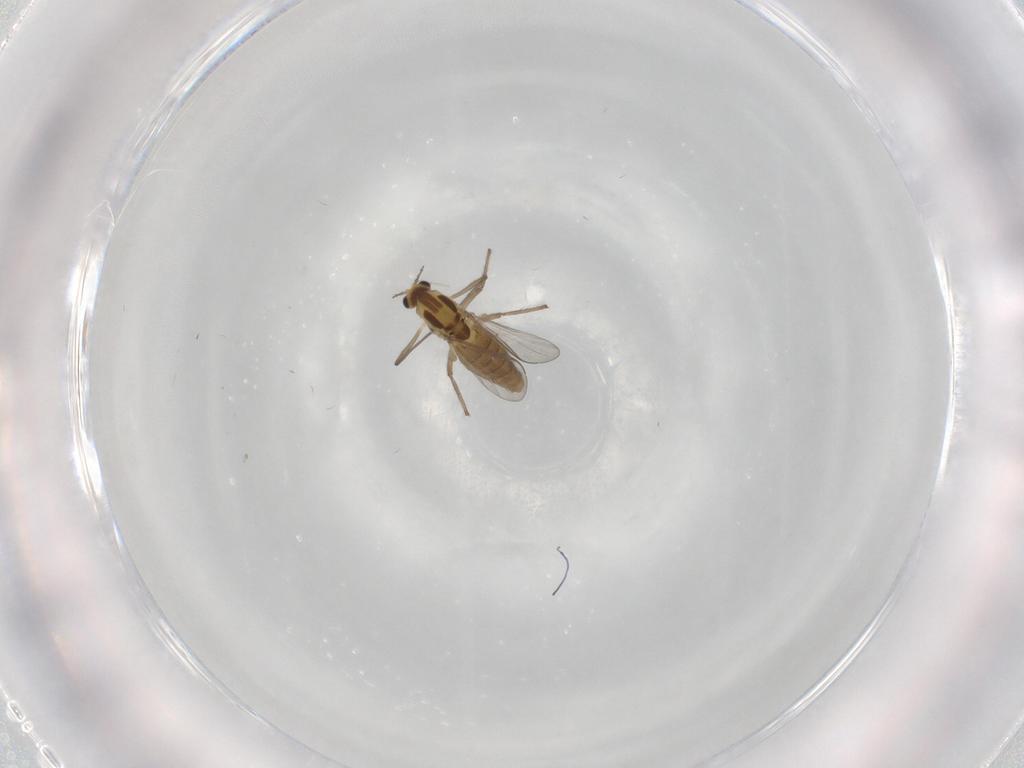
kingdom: Animalia
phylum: Arthropoda
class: Insecta
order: Diptera
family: Chironomidae
